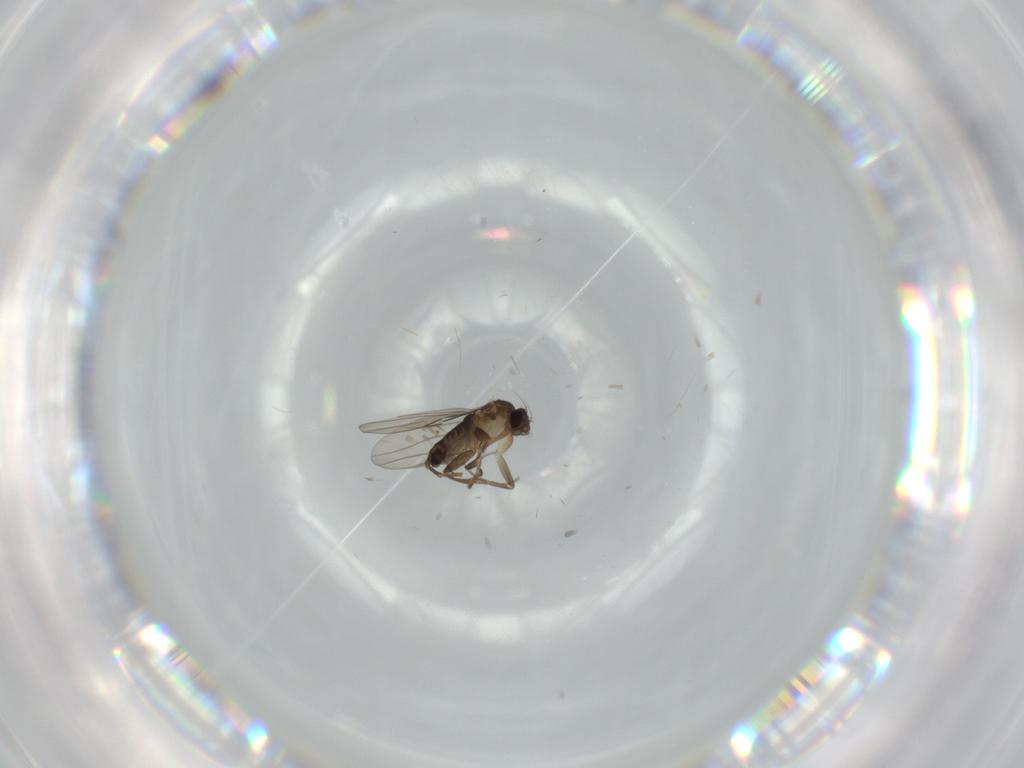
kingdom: Animalia
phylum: Arthropoda
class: Insecta
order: Diptera
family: Phoridae
